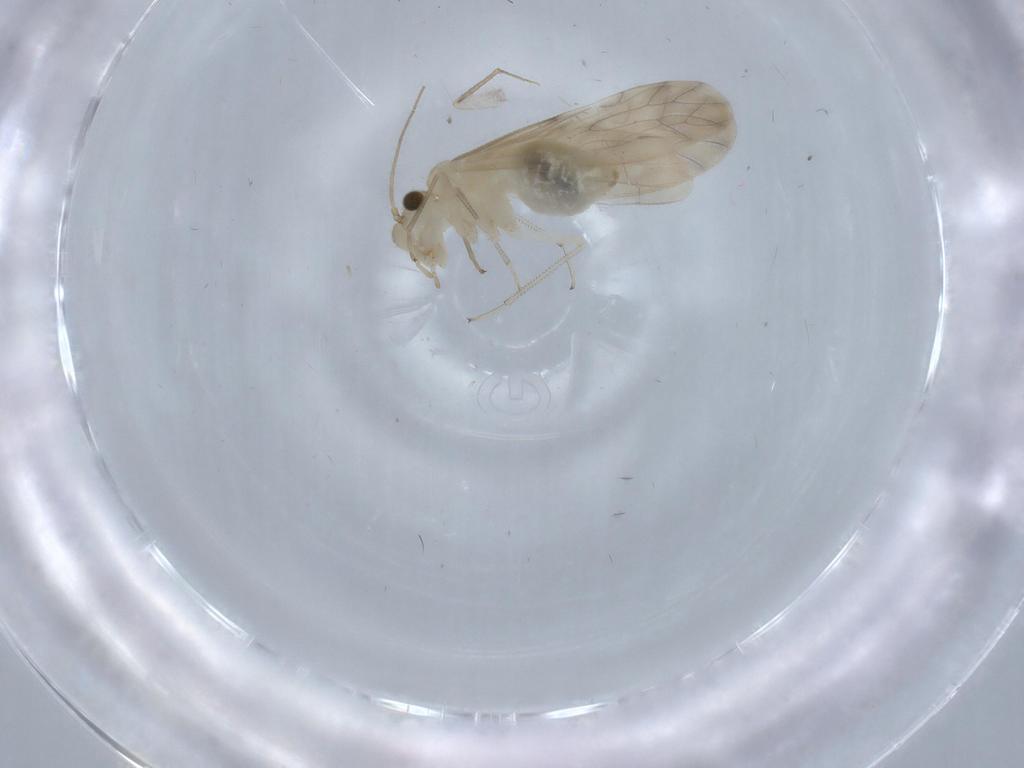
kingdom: Animalia
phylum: Arthropoda
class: Insecta
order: Psocodea
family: Caeciliusidae
